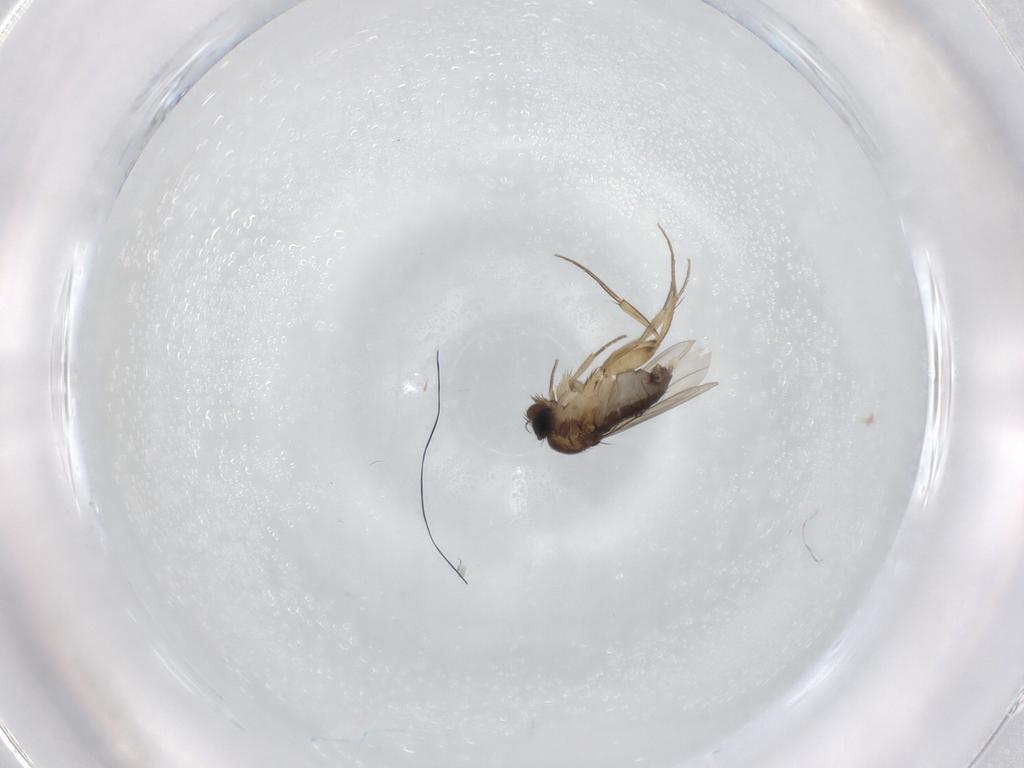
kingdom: Animalia
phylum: Arthropoda
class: Insecta
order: Diptera
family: Phoridae
